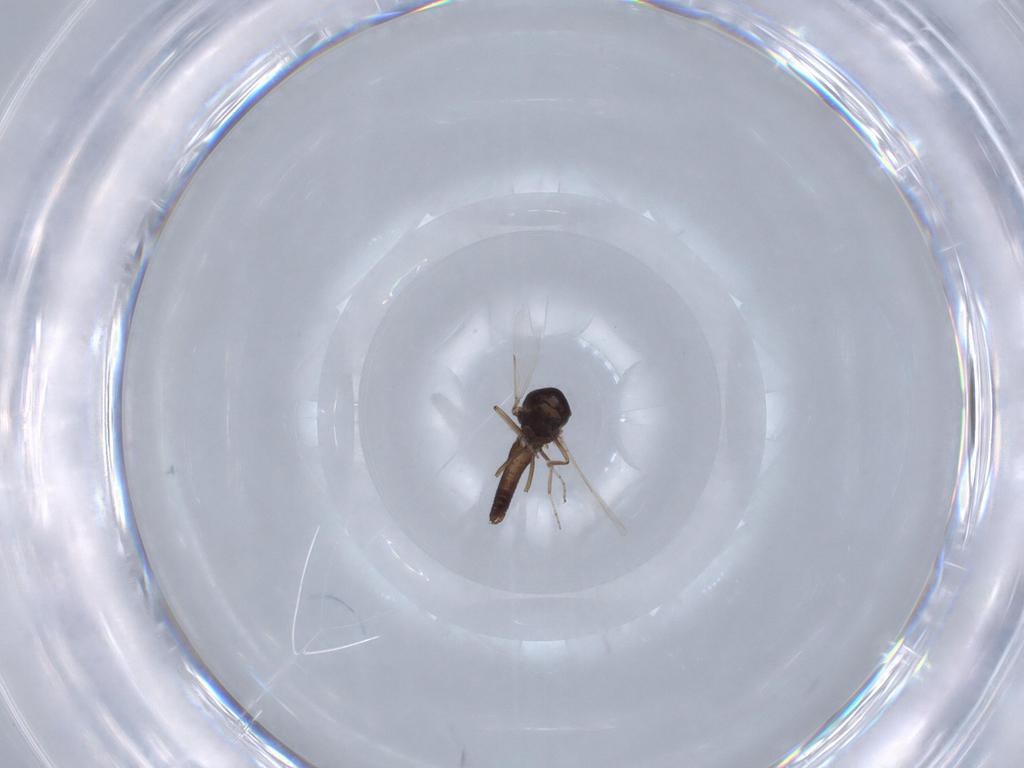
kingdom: Animalia
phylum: Arthropoda
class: Insecta
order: Diptera
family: Ceratopogonidae
